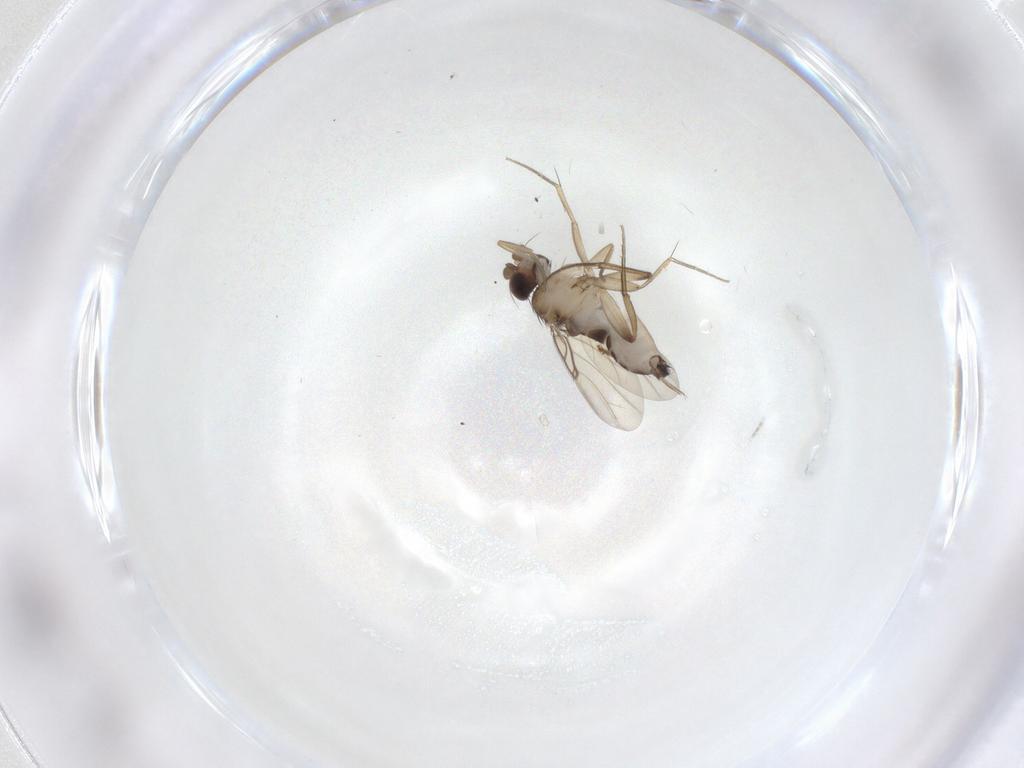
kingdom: Animalia
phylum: Arthropoda
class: Insecta
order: Diptera
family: Phoridae
